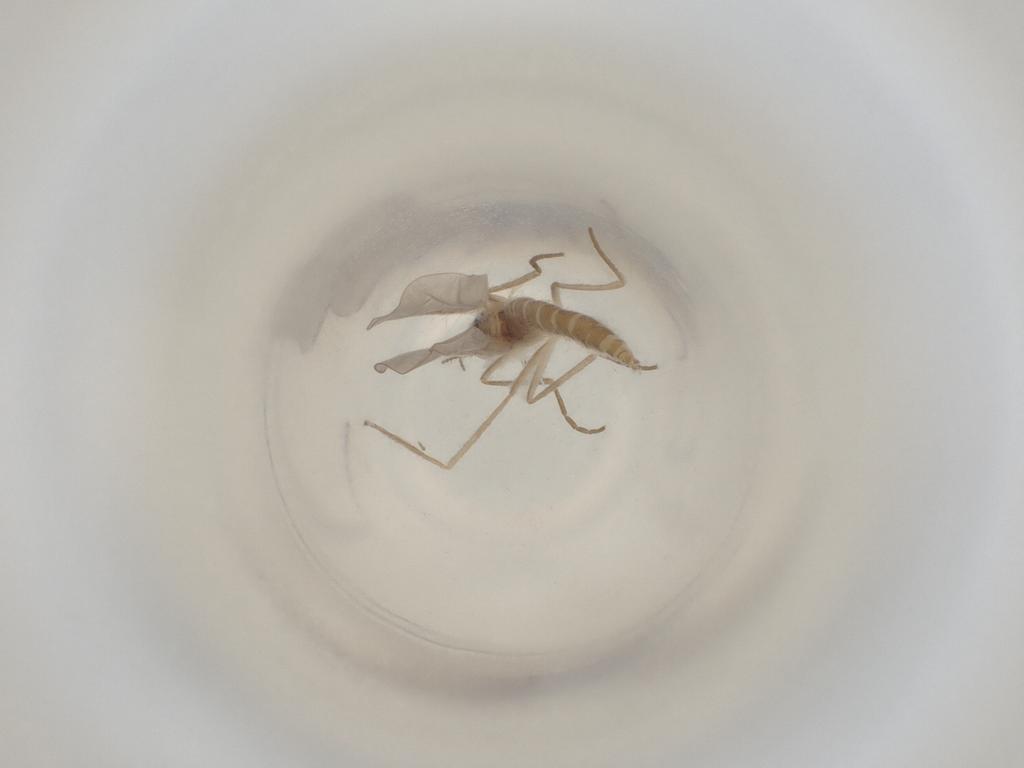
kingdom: Animalia
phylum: Arthropoda
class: Insecta
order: Diptera
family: Cecidomyiidae
